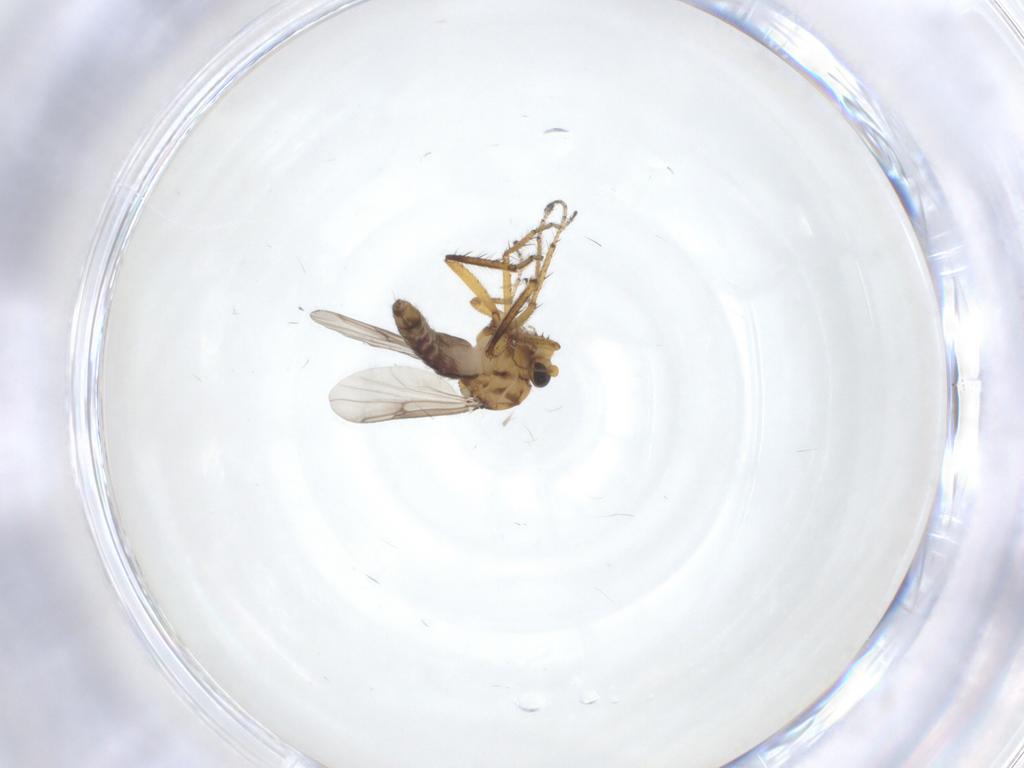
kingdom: Animalia
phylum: Arthropoda
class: Insecta
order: Diptera
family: Ceratopogonidae
